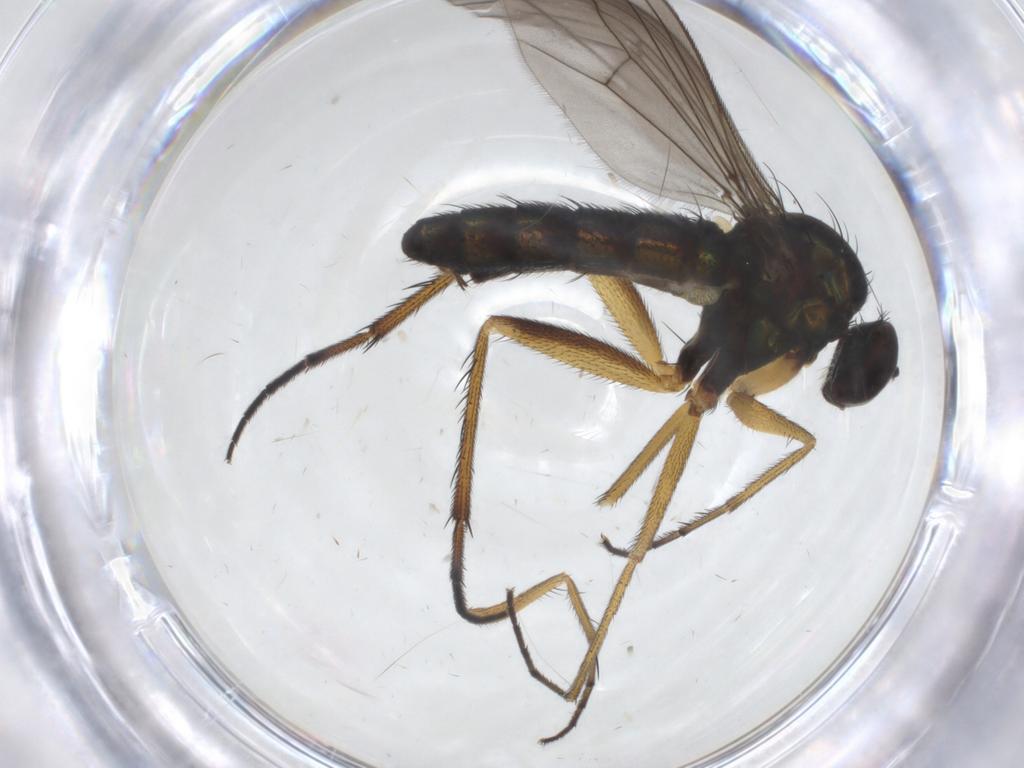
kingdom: Animalia
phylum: Arthropoda
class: Insecta
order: Diptera
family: Dolichopodidae
